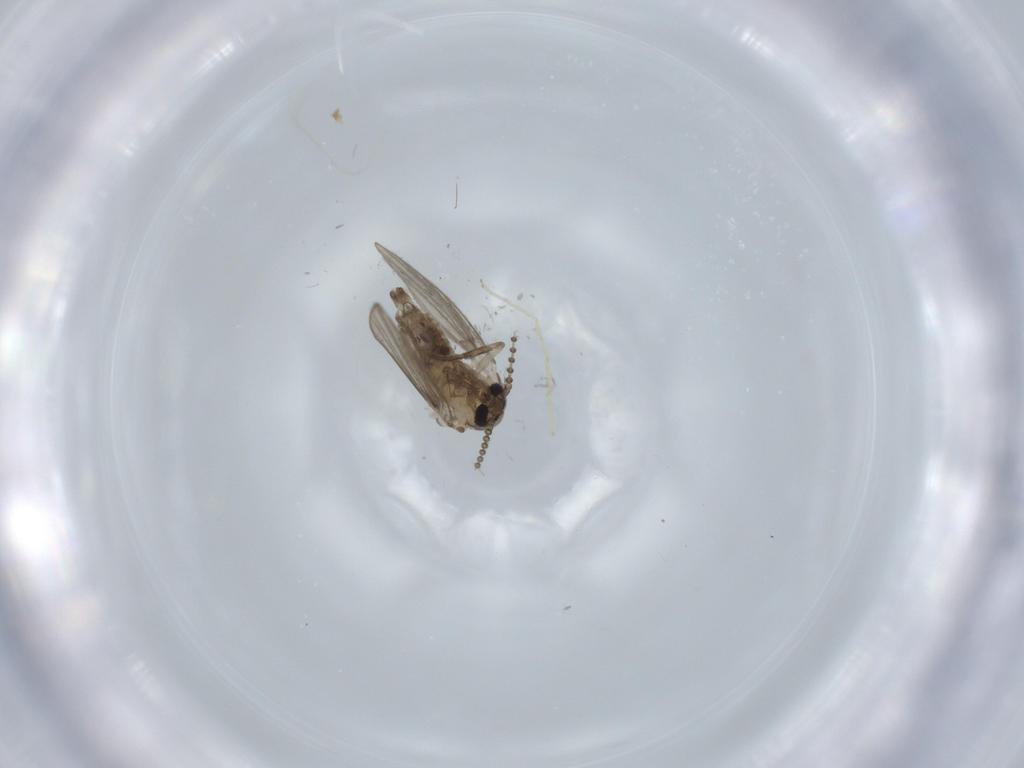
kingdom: Animalia
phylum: Arthropoda
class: Insecta
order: Diptera
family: Psychodidae
